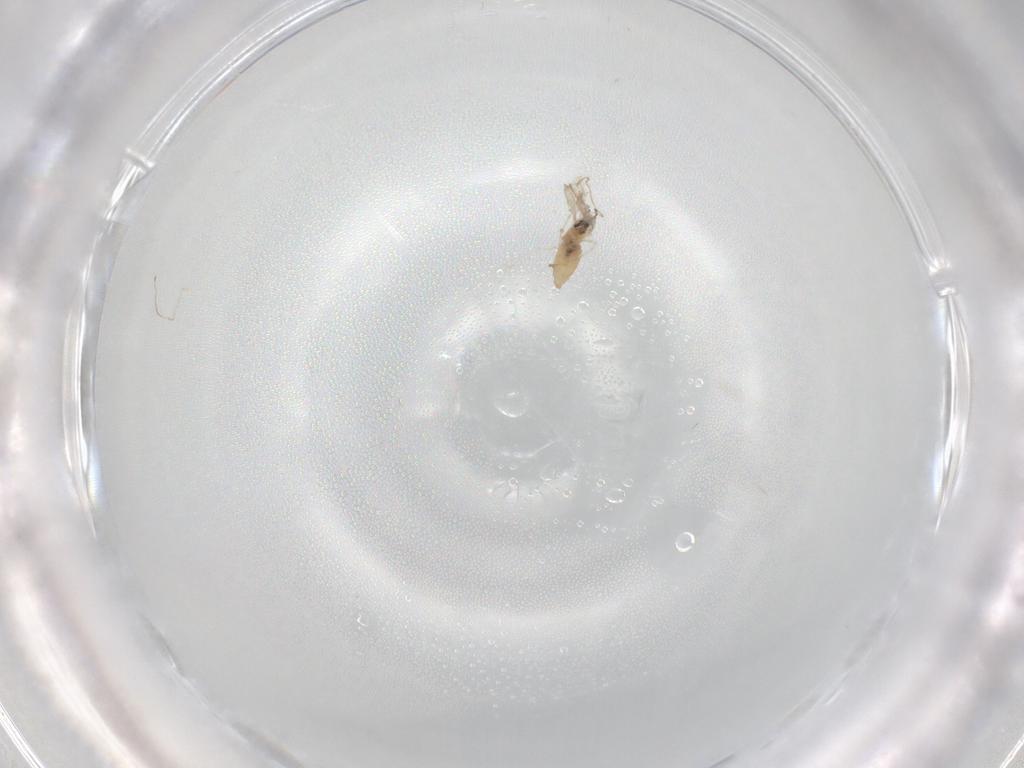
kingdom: Animalia
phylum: Arthropoda
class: Insecta
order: Diptera
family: Cecidomyiidae
